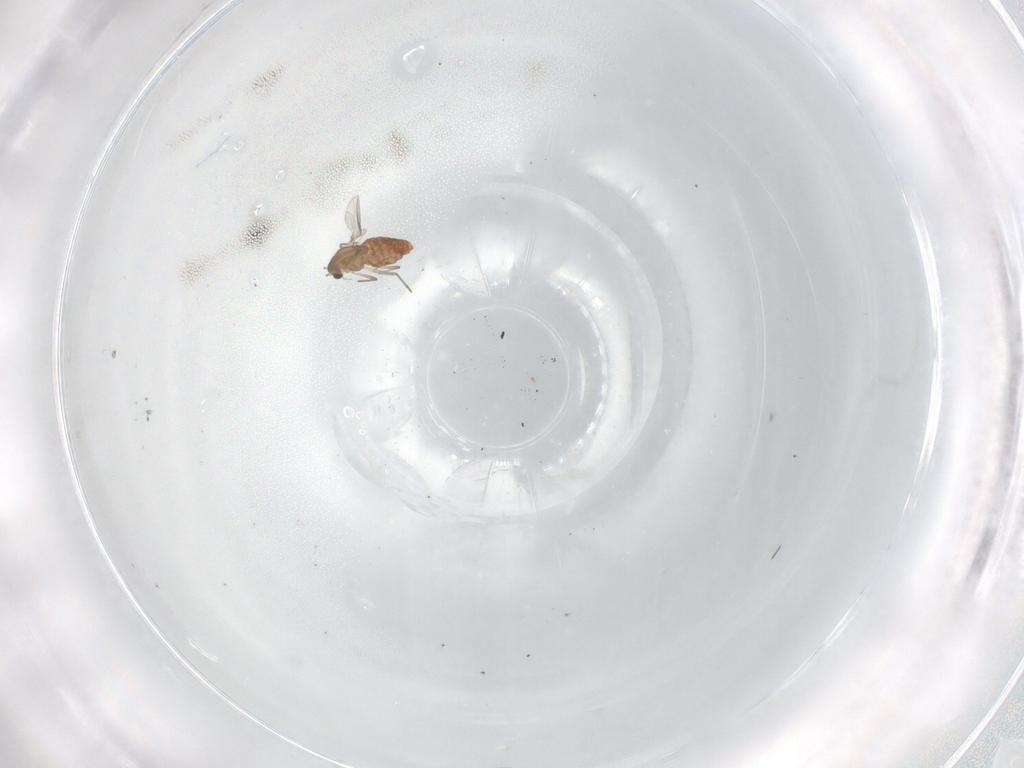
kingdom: Animalia
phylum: Arthropoda
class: Insecta
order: Diptera
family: Chironomidae
